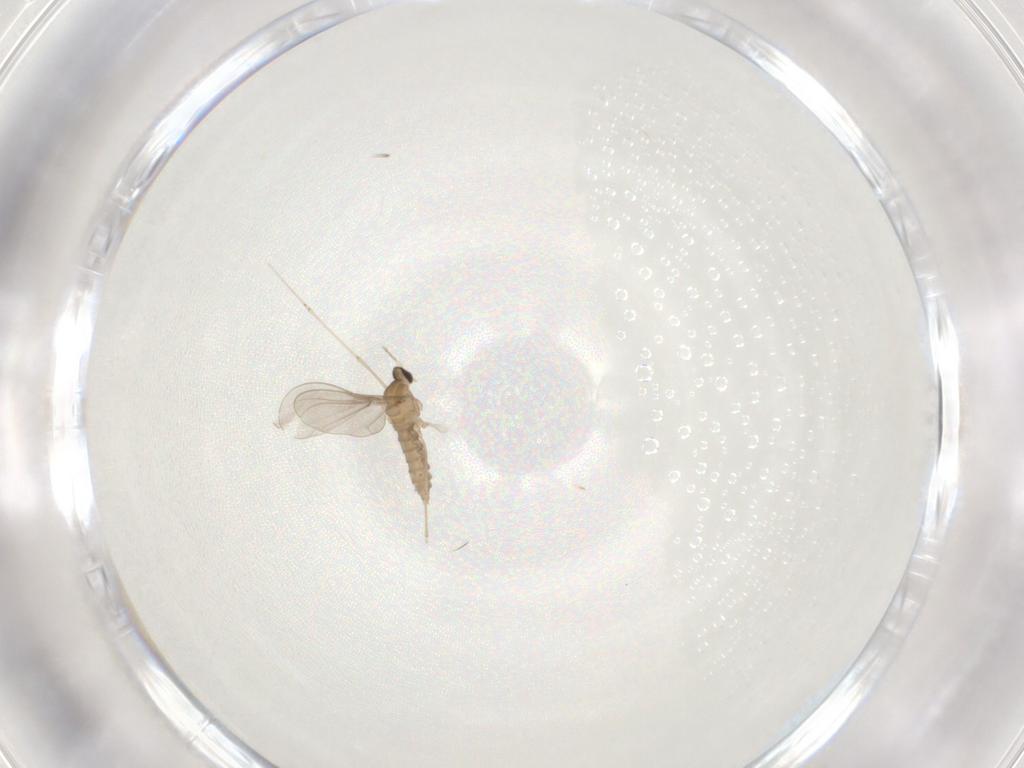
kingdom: Animalia
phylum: Arthropoda
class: Insecta
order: Diptera
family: Cecidomyiidae
